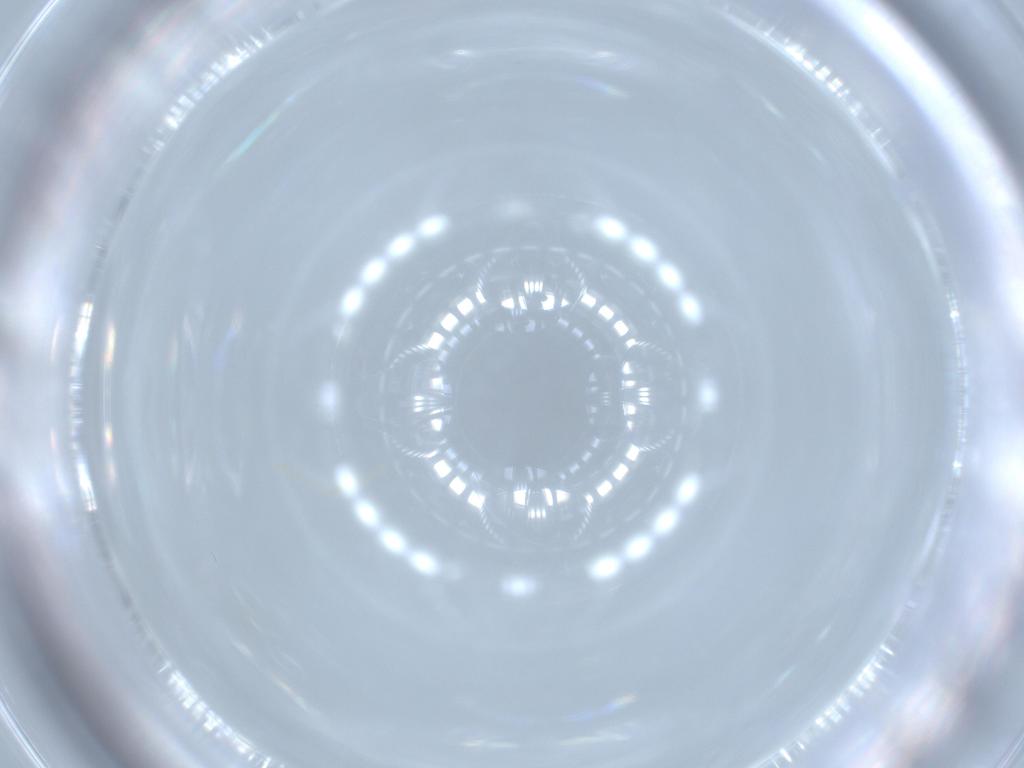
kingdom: Animalia
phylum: Arthropoda
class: Insecta
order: Diptera
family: Cecidomyiidae
